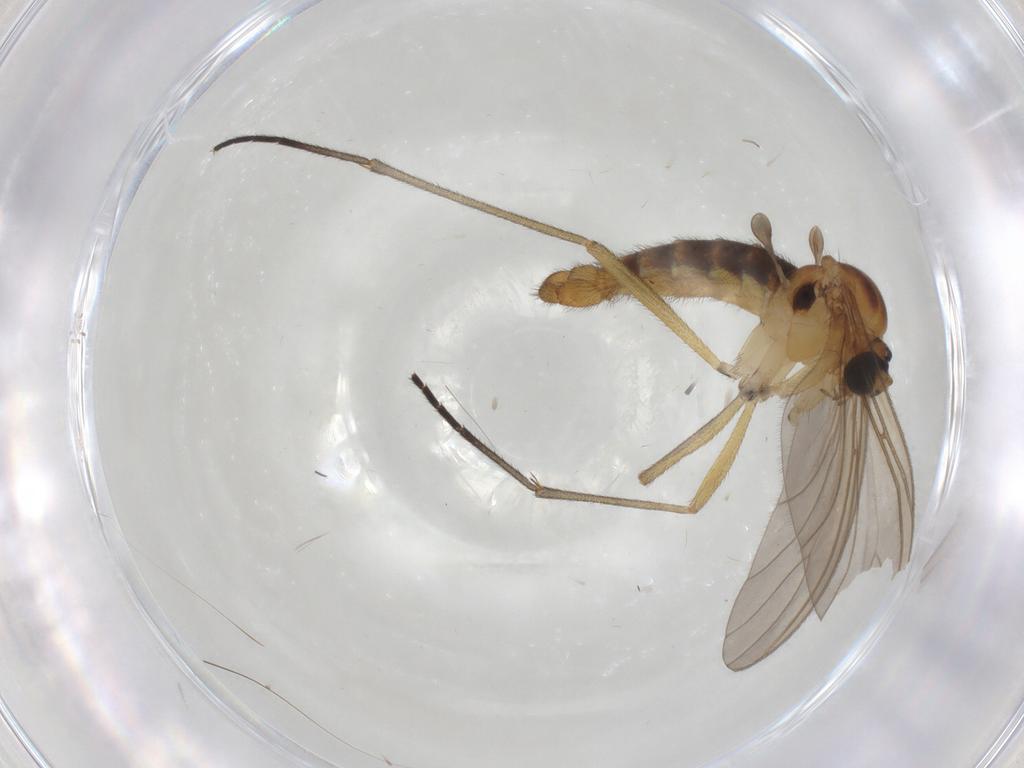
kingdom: Animalia
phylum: Arthropoda
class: Insecta
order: Diptera
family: Sciaridae
